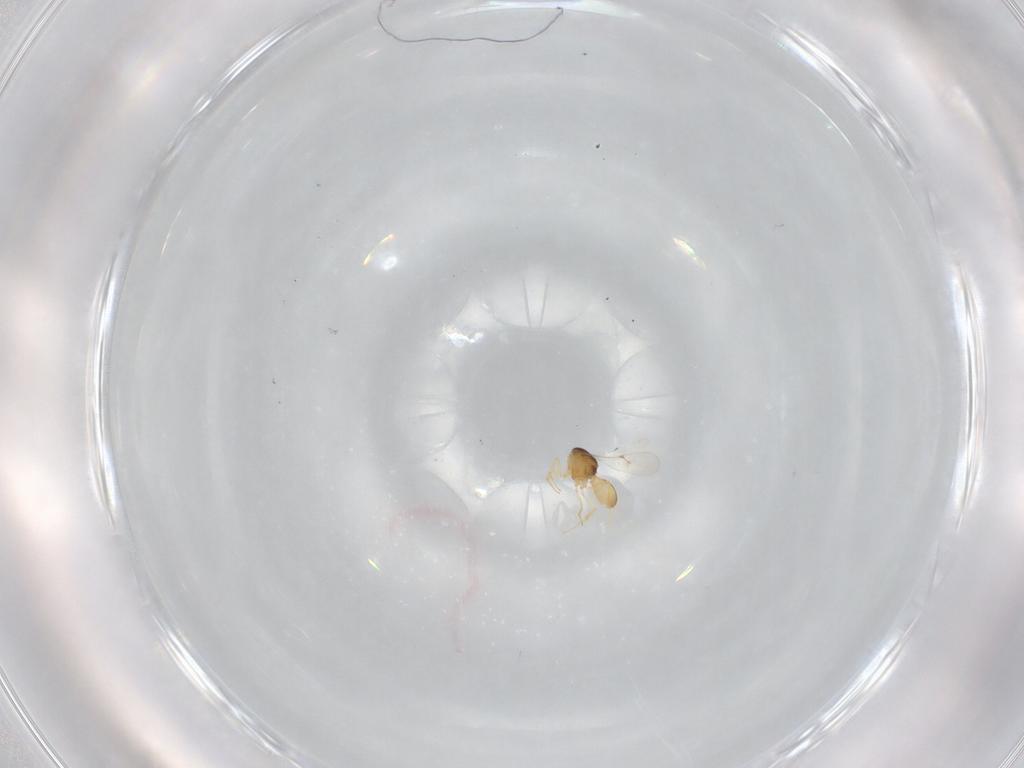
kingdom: Animalia
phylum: Arthropoda
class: Insecta
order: Hymenoptera
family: Scelionidae
